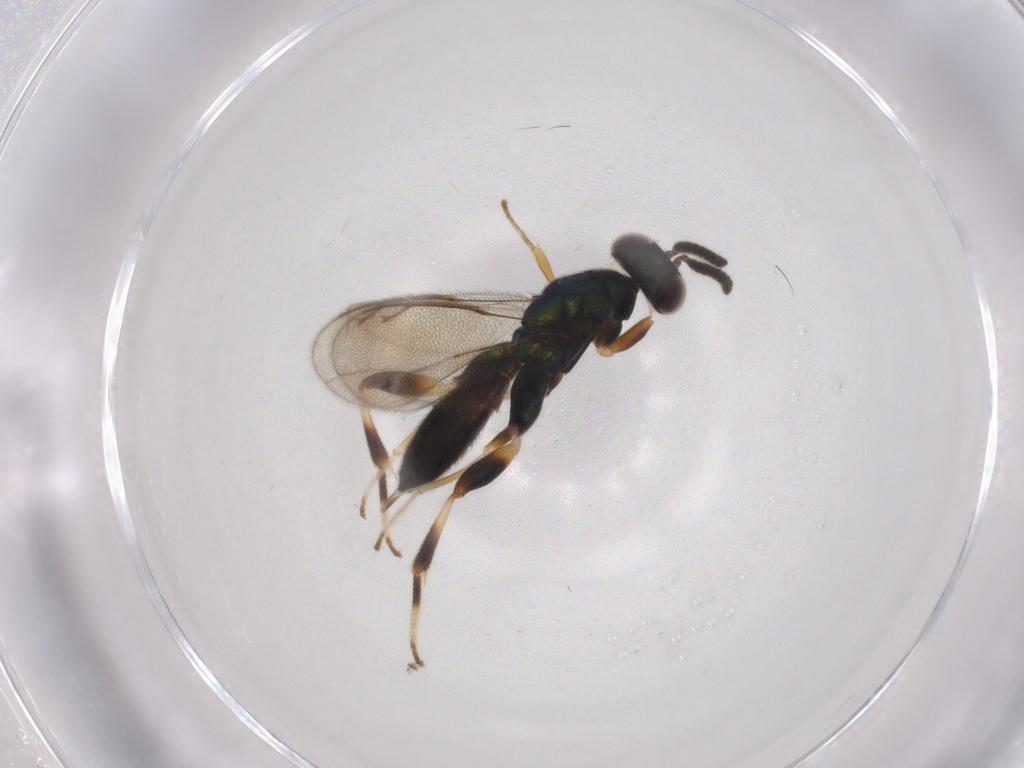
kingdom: Animalia
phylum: Arthropoda
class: Insecta
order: Hymenoptera
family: Cleonyminae
